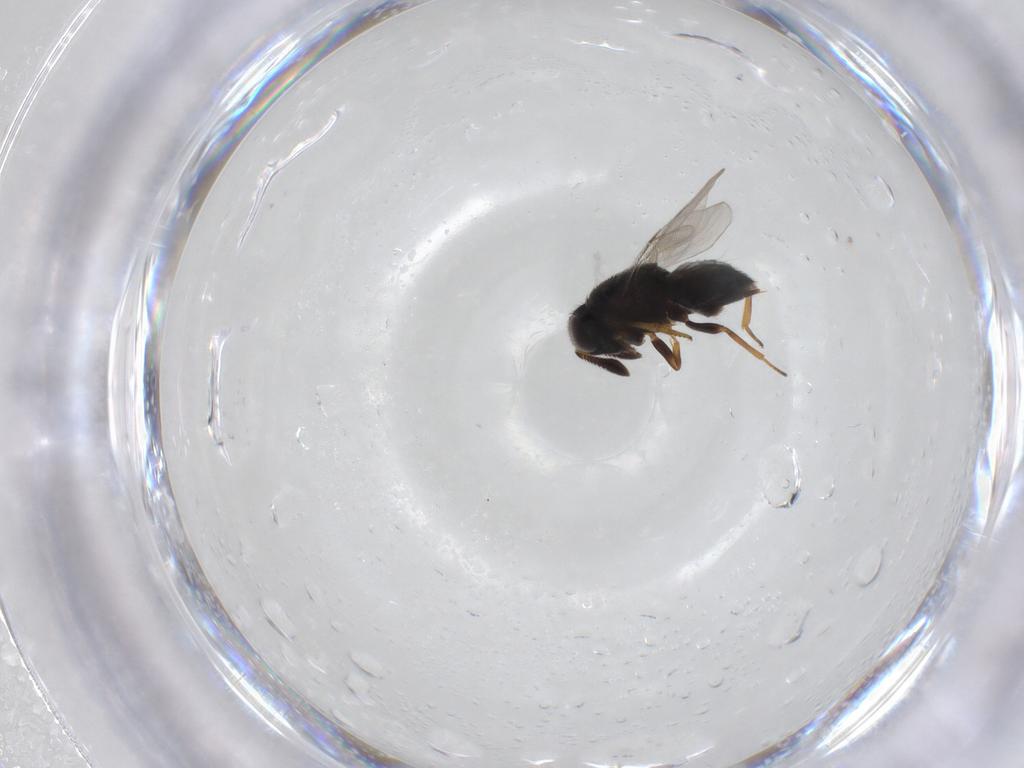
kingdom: Animalia
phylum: Arthropoda
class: Insecta
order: Hymenoptera
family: Encyrtidae
